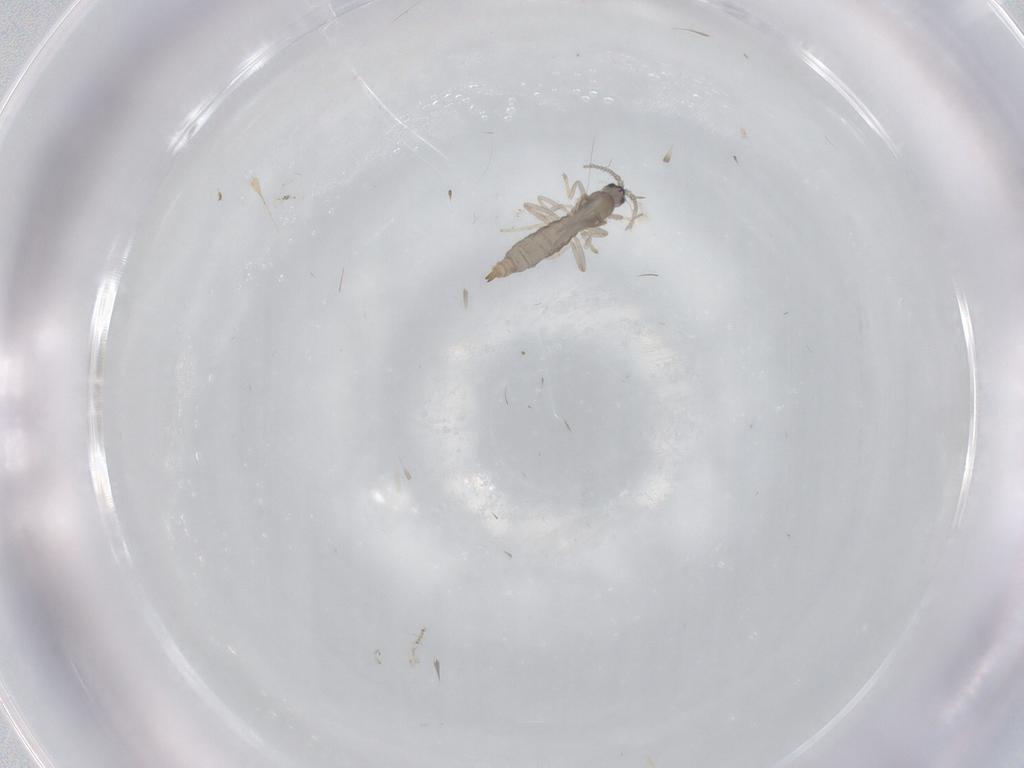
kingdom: Animalia
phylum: Arthropoda
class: Insecta
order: Diptera
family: Cecidomyiidae
